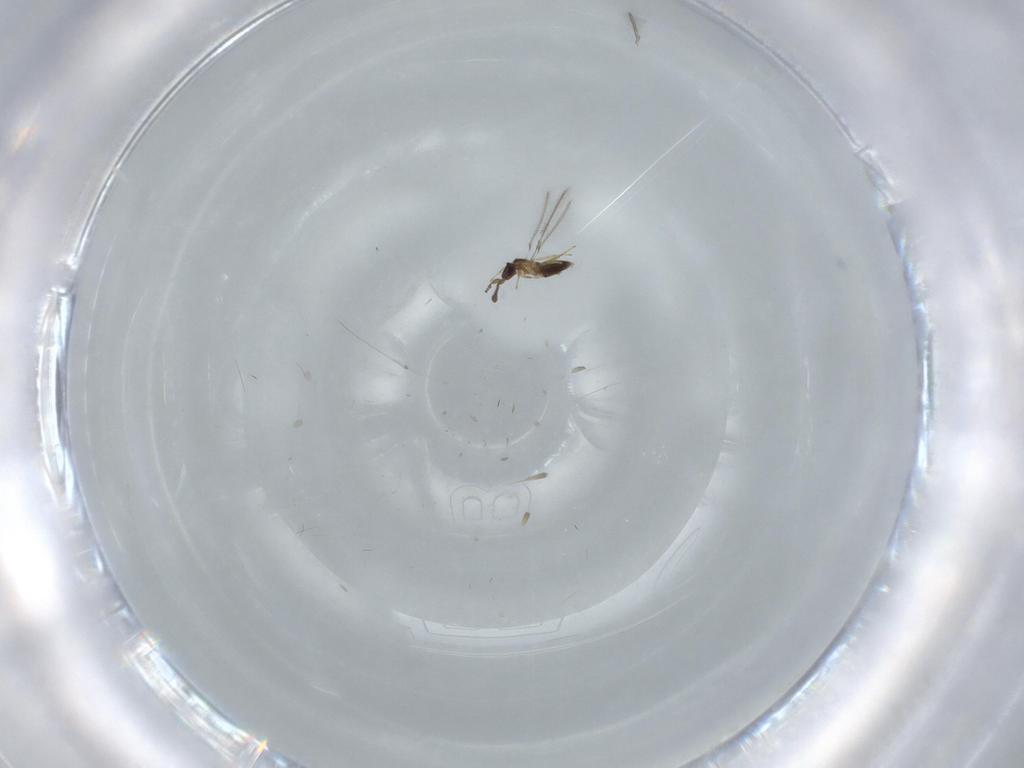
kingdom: Animalia
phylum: Arthropoda
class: Insecta
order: Hymenoptera
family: Mymaridae
